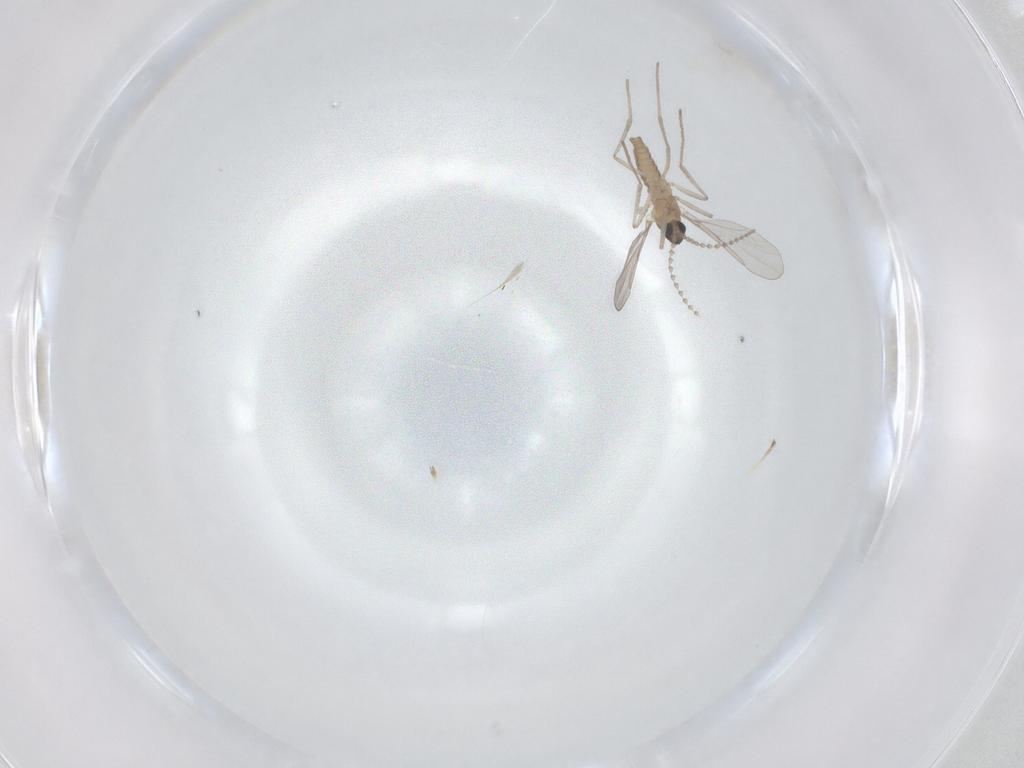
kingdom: Animalia
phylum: Arthropoda
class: Insecta
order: Diptera
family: Cecidomyiidae
